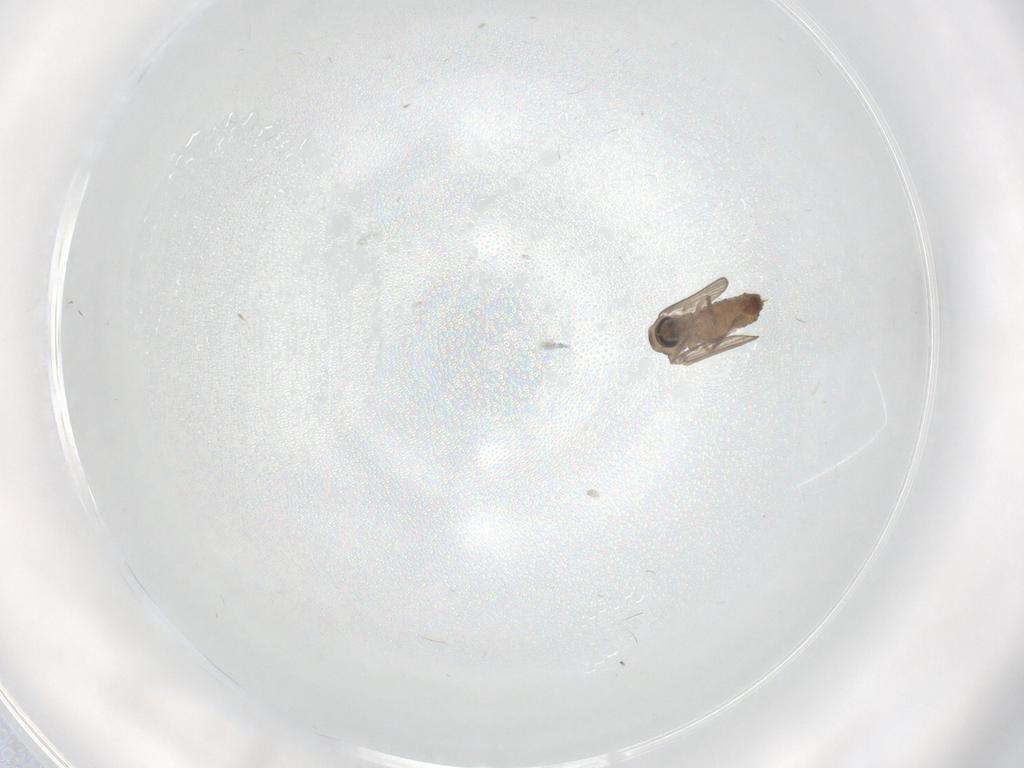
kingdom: Animalia
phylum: Arthropoda
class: Insecta
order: Diptera
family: Psychodidae
